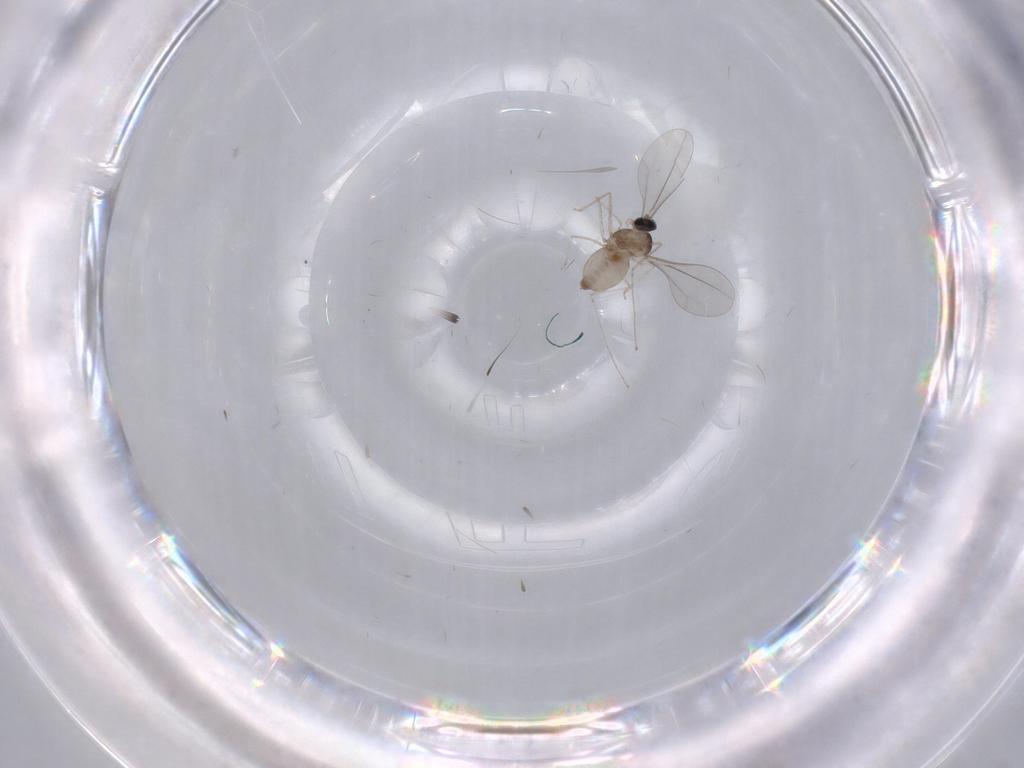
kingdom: Animalia
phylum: Arthropoda
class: Insecta
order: Diptera
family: Cecidomyiidae
